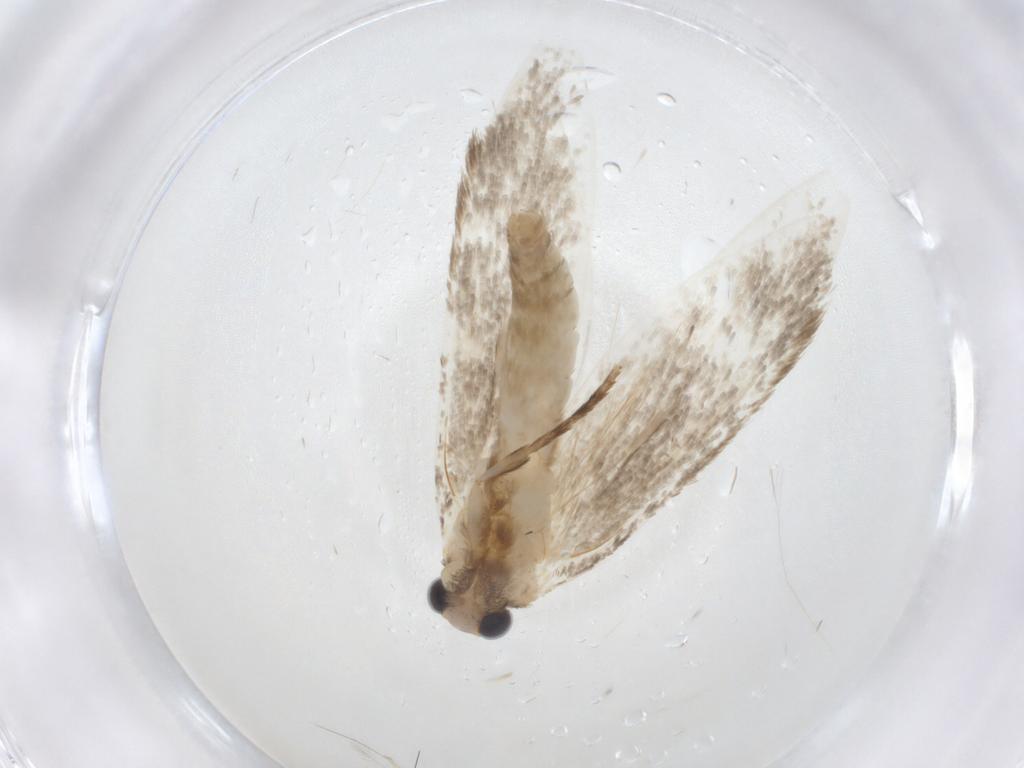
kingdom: Animalia
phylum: Arthropoda
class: Insecta
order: Lepidoptera
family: Tineidae
